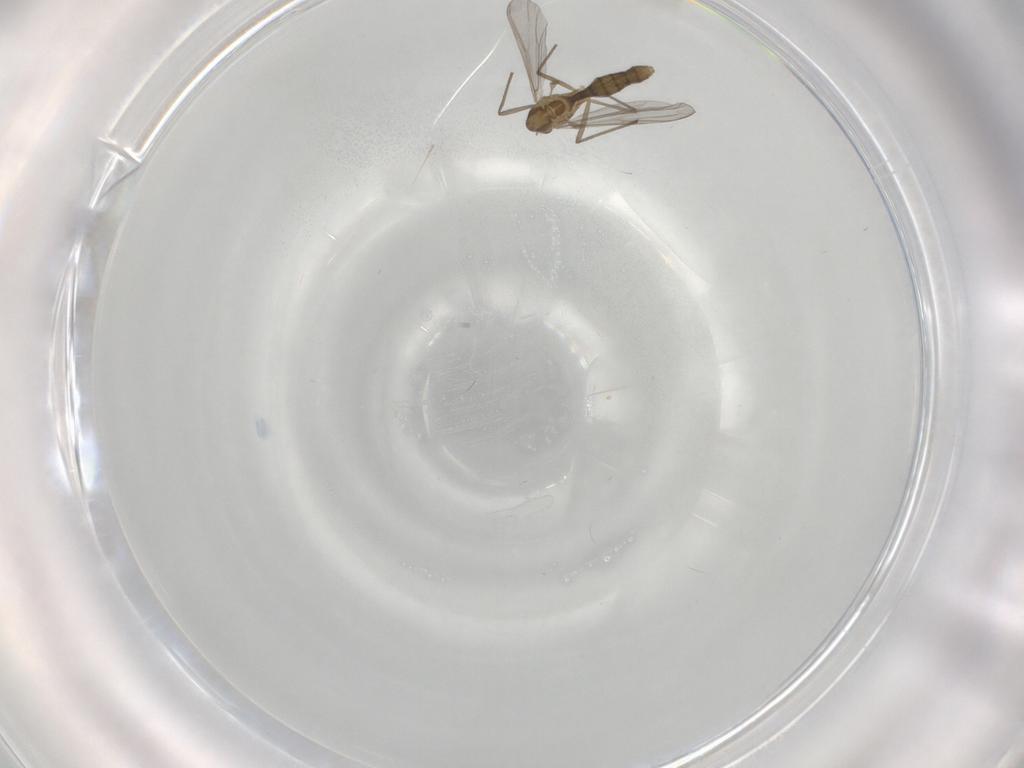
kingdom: Animalia
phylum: Arthropoda
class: Insecta
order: Diptera
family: Chironomidae
